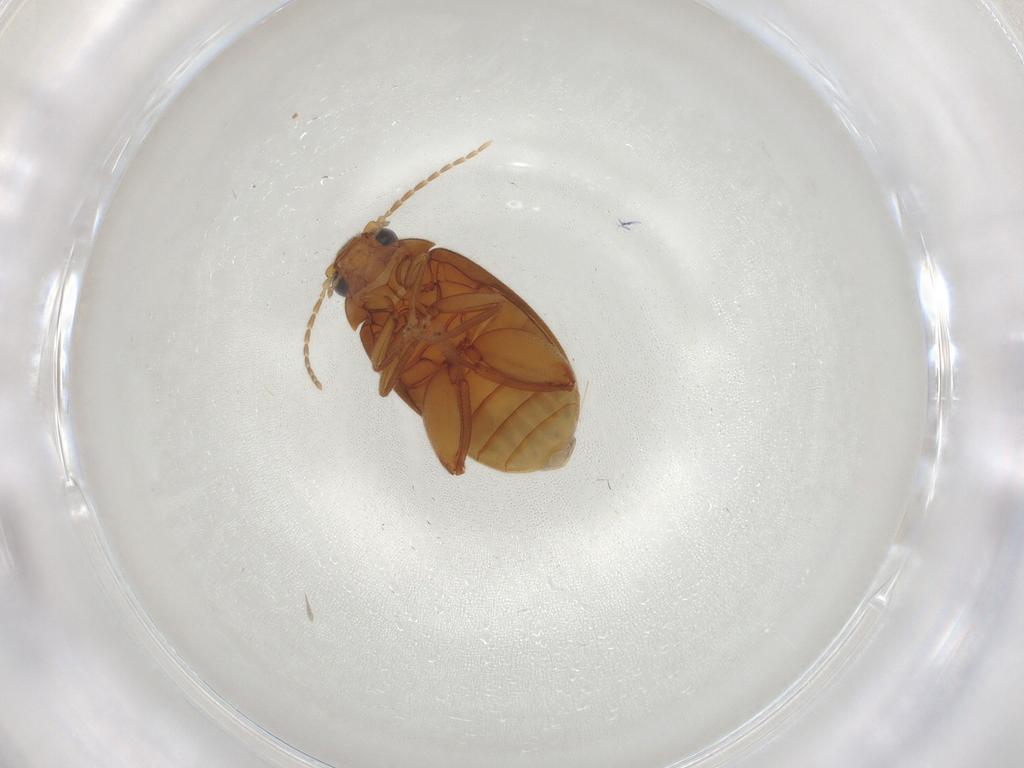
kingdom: Animalia
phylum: Arthropoda
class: Insecta
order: Coleoptera
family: Scirtidae
